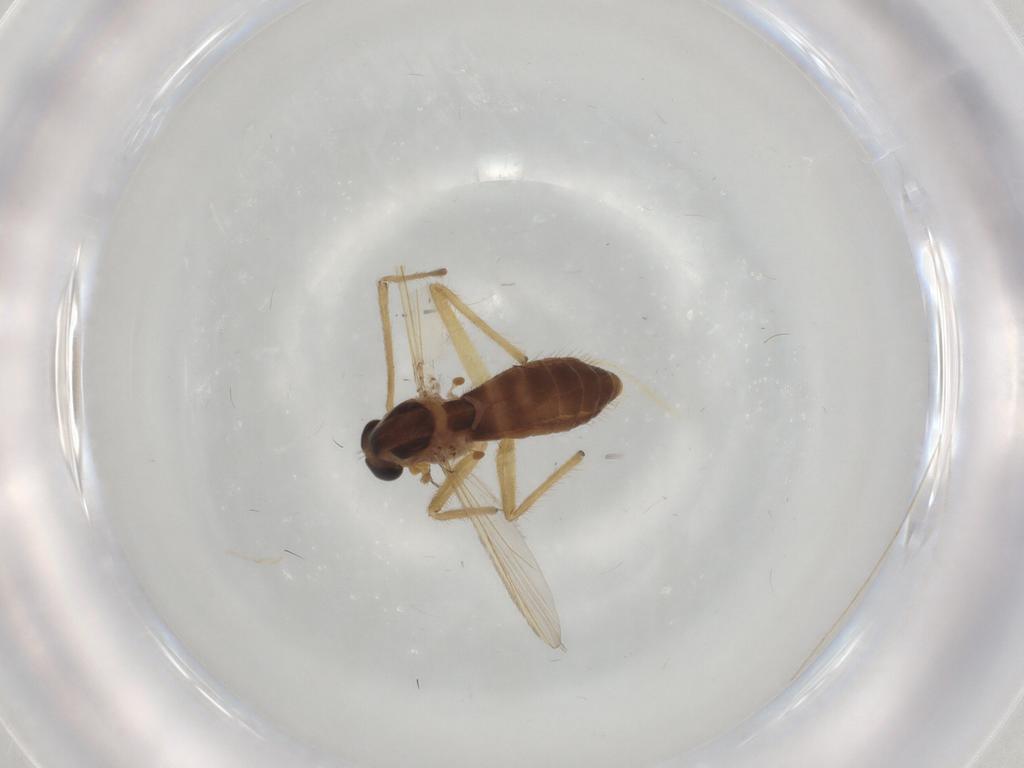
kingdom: Animalia
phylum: Arthropoda
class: Insecta
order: Diptera
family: Chironomidae
